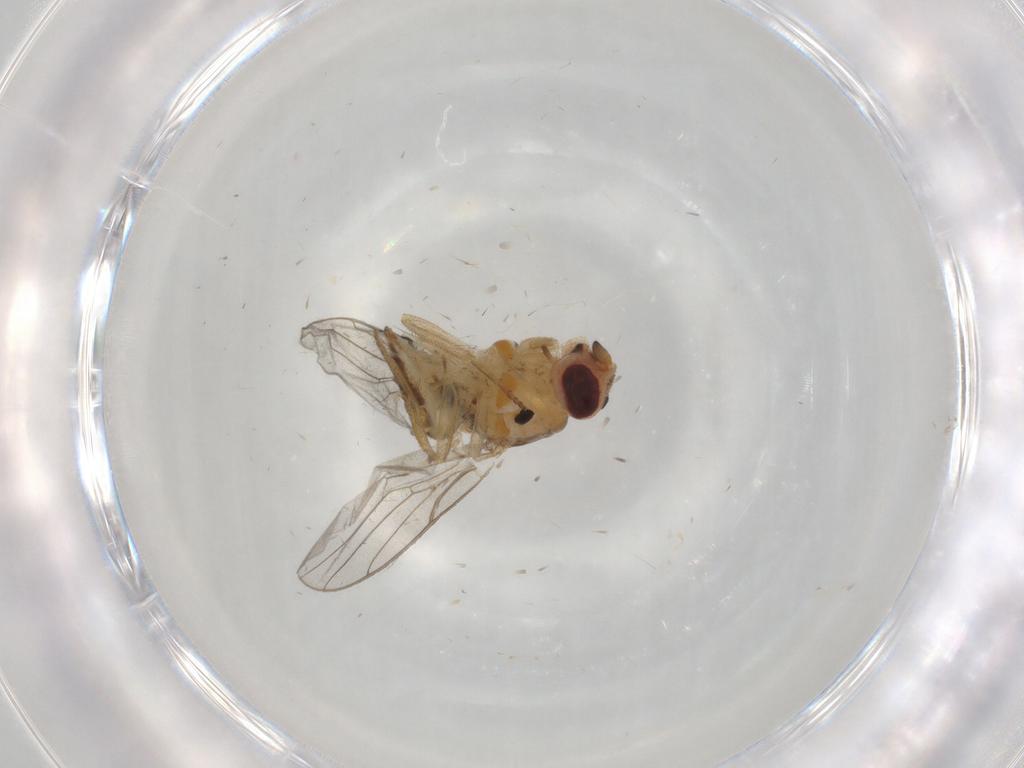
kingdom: Animalia
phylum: Arthropoda
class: Insecta
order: Diptera
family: Chloropidae
